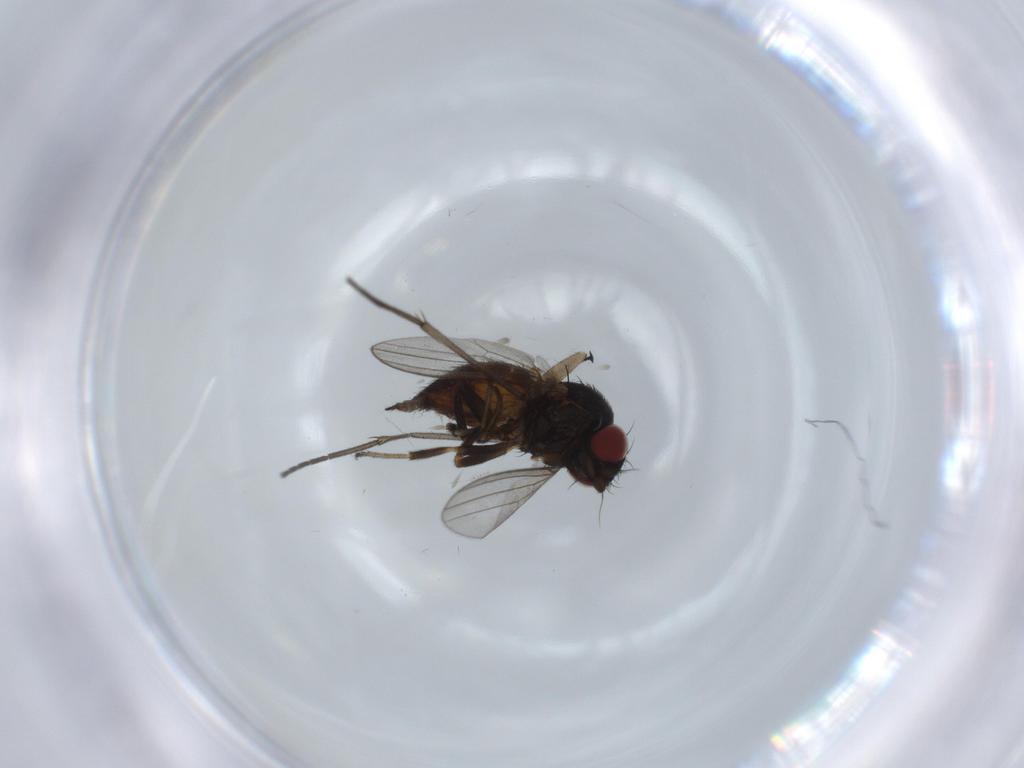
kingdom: Animalia
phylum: Arthropoda
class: Insecta
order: Diptera
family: Milichiidae
